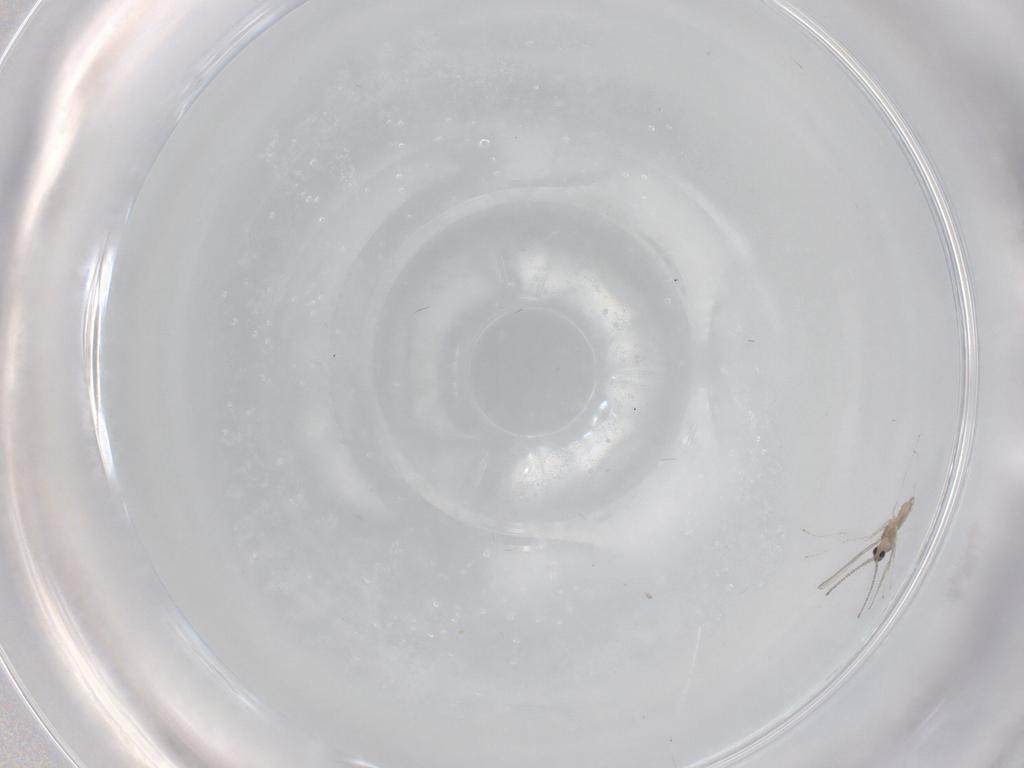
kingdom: Animalia
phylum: Arthropoda
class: Insecta
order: Diptera
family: Cecidomyiidae
